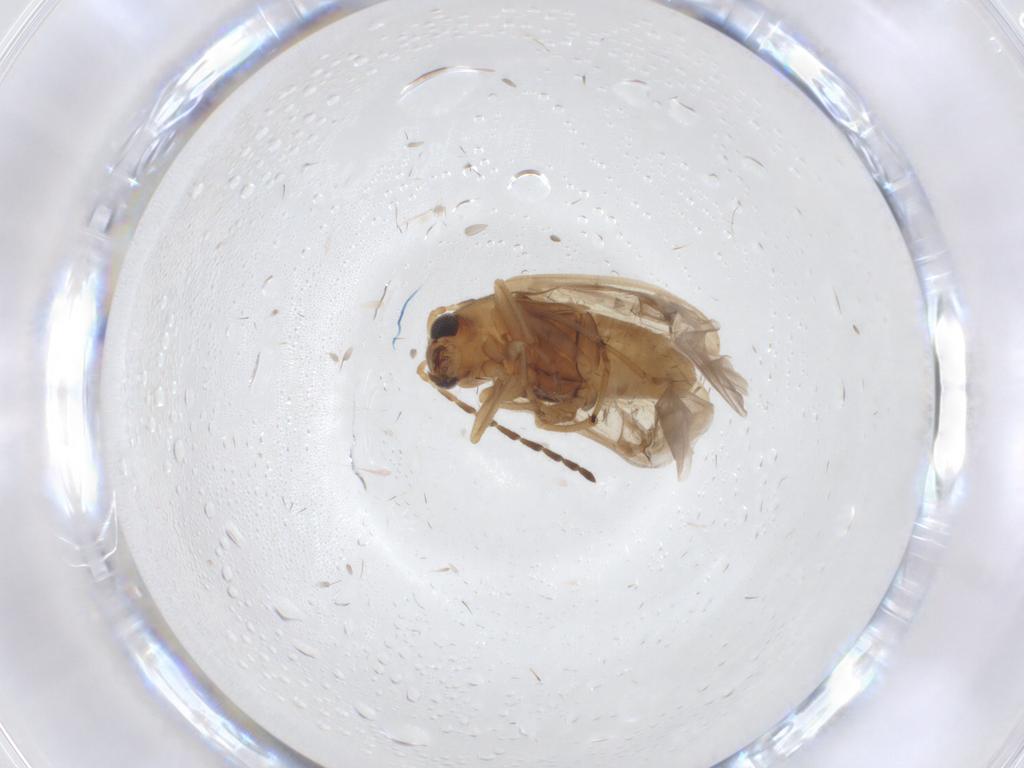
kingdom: Animalia
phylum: Arthropoda
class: Insecta
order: Coleoptera
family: Chrysomelidae
